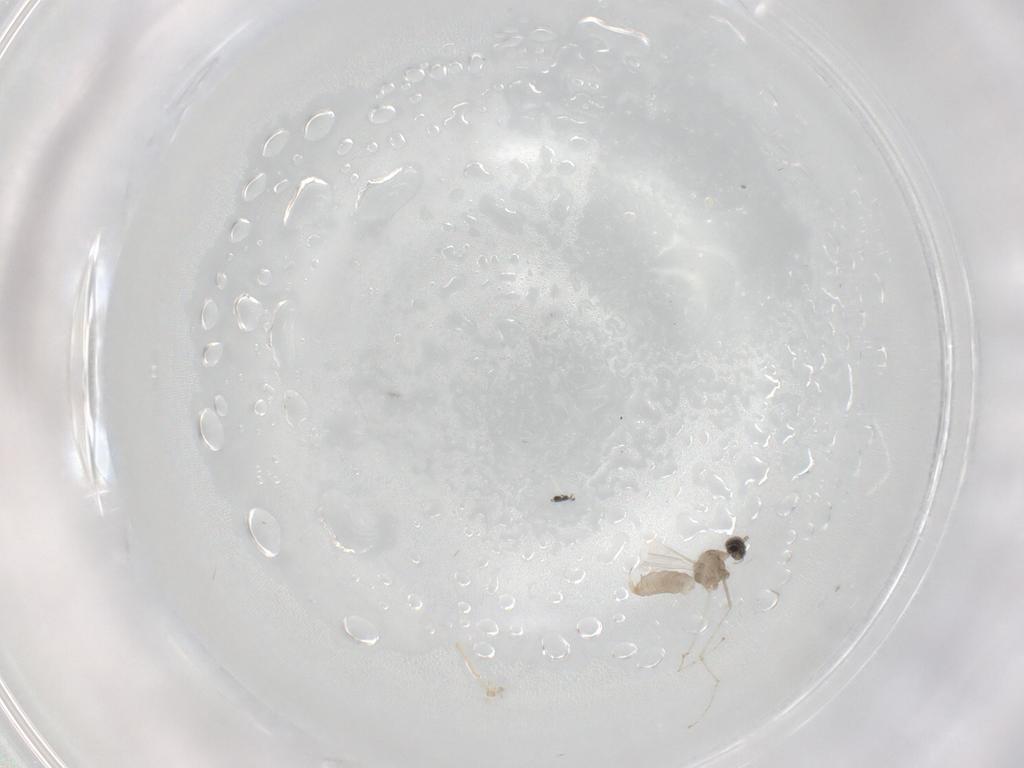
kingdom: Animalia
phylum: Arthropoda
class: Insecta
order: Diptera
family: Cecidomyiidae
